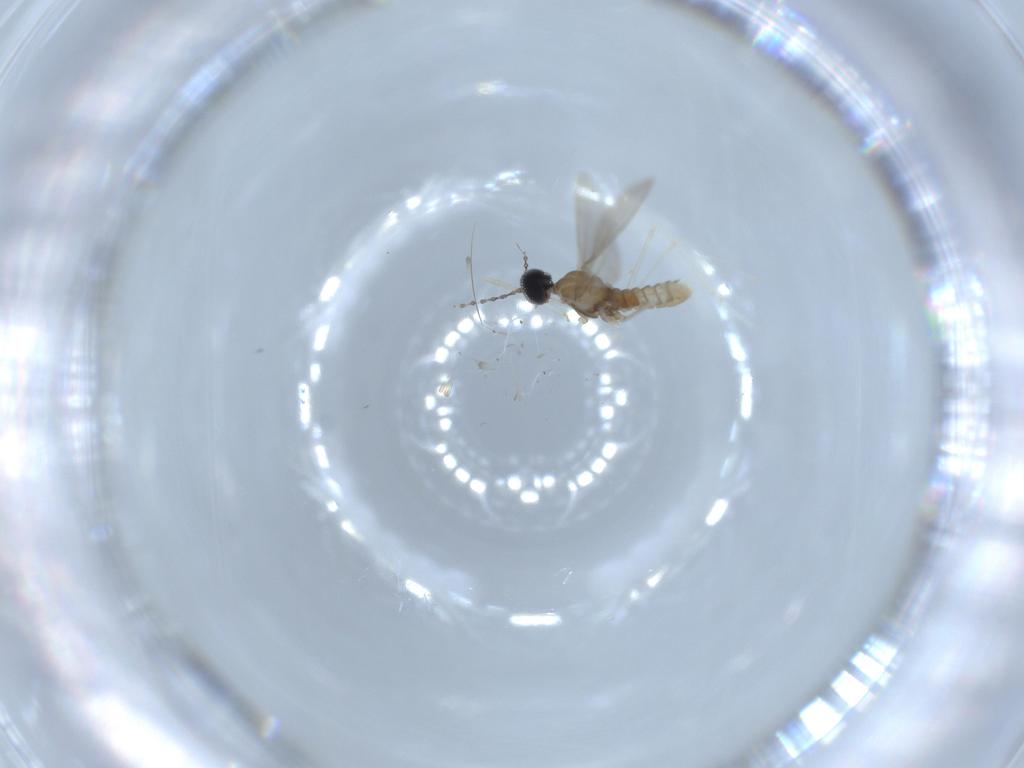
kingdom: Animalia
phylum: Arthropoda
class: Insecta
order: Diptera
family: Cecidomyiidae
